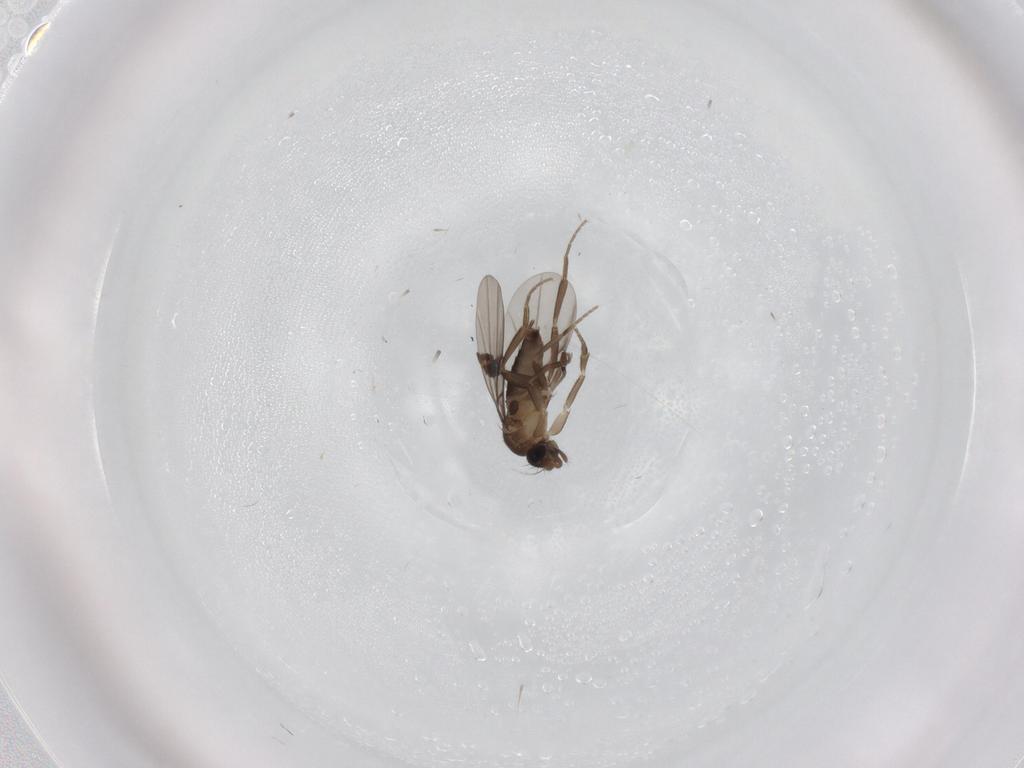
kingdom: Animalia
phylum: Arthropoda
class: Insecta
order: Diptera
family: Phoridae
